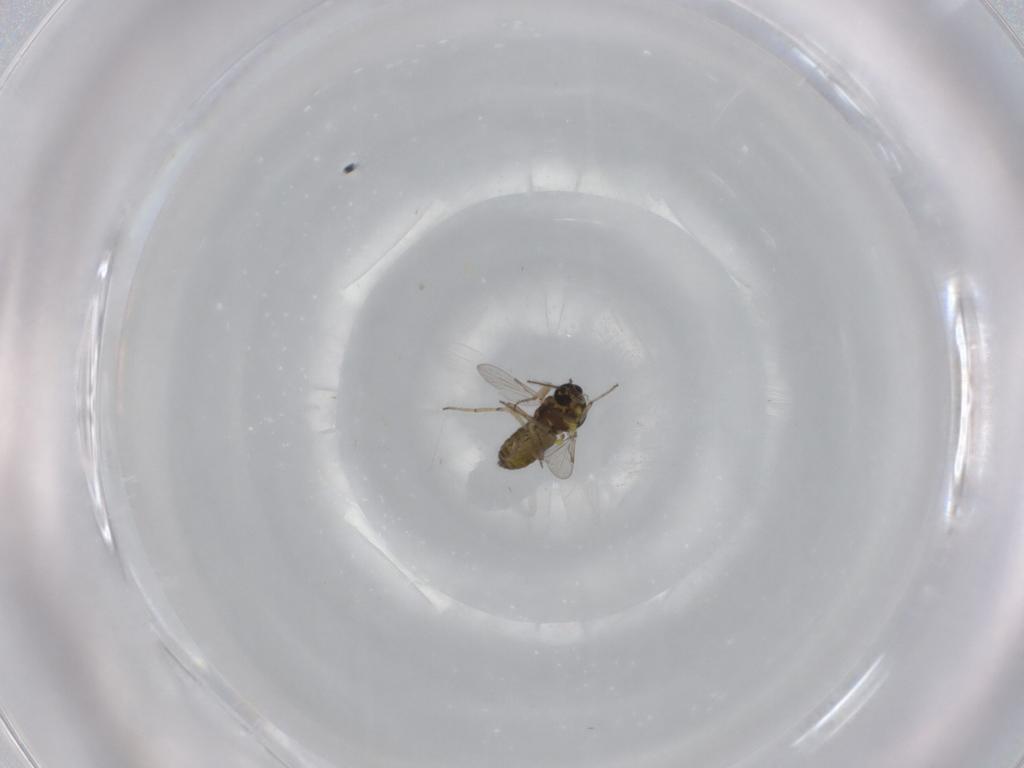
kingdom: Animalia
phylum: Arthropoda
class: Insecta
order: Diptera
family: Ceratopogonidae
